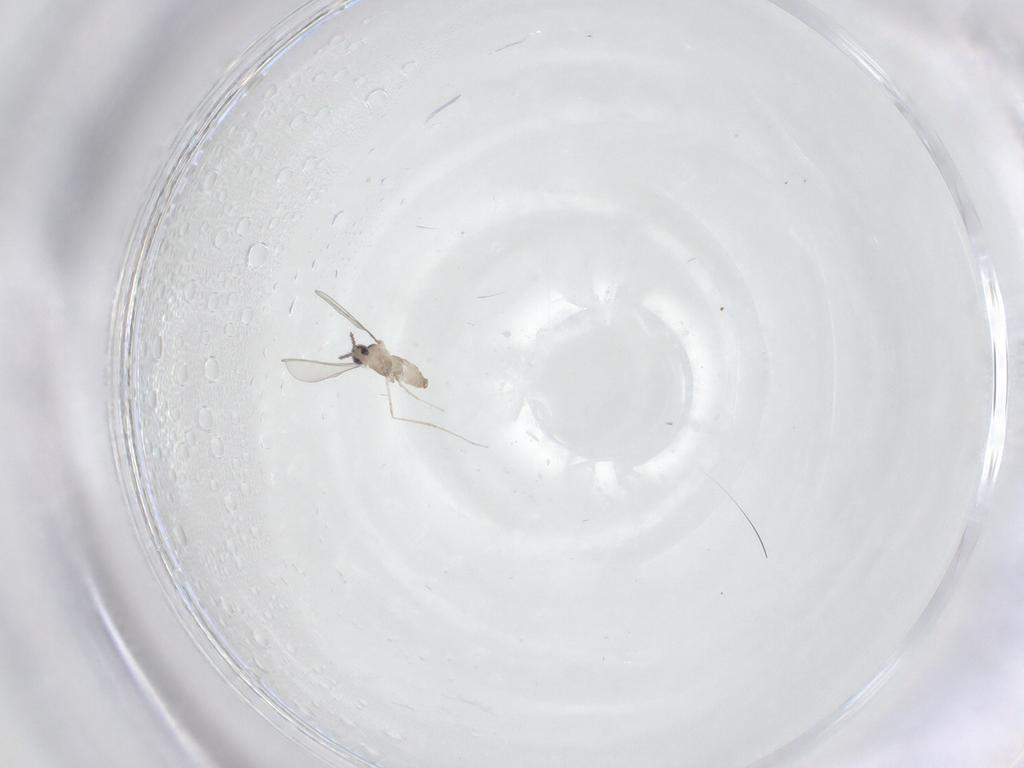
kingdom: Animalia
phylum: Arthropoda
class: Insecta
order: Diptera
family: Cecidomyiidae
